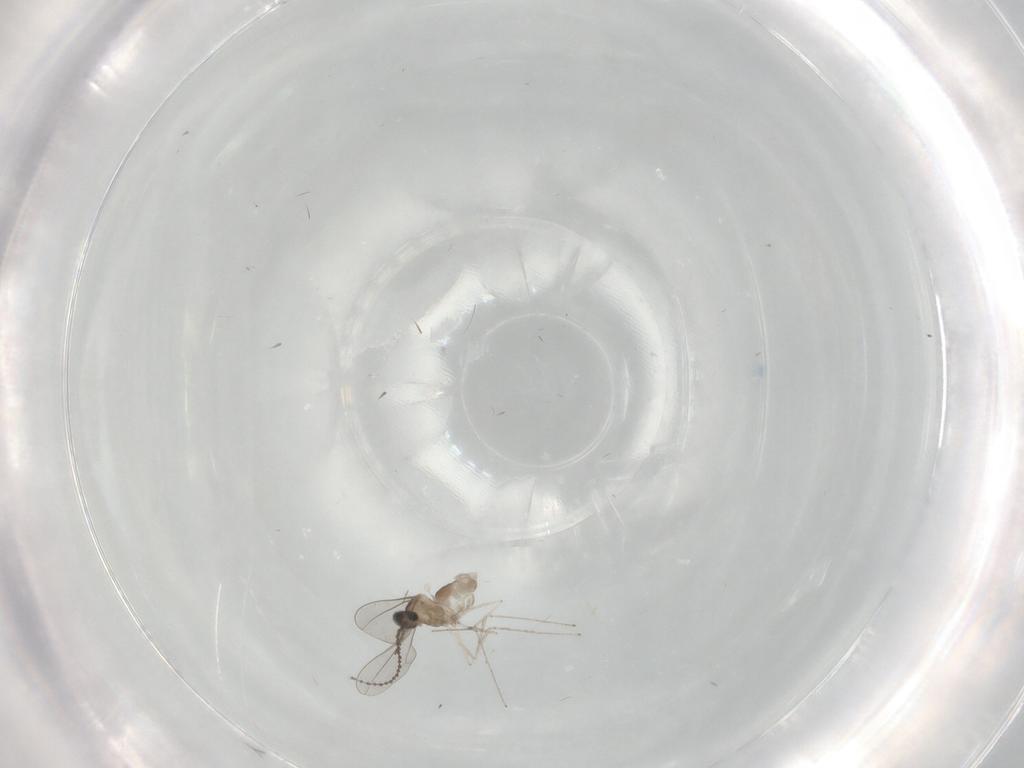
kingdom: Animalia
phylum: Arthropoda
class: Insecta
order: Diptera
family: Cecidomyiidae
